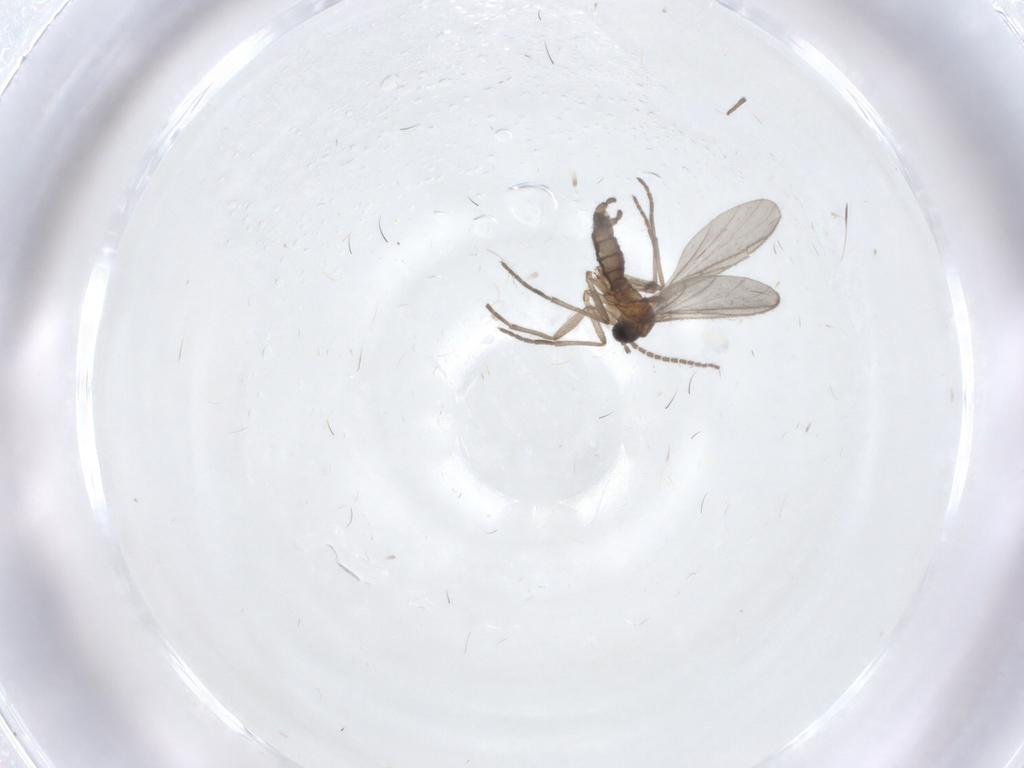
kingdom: Animalia
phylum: Arthropoda
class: Insecta
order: Diptera
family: Sciaridae
